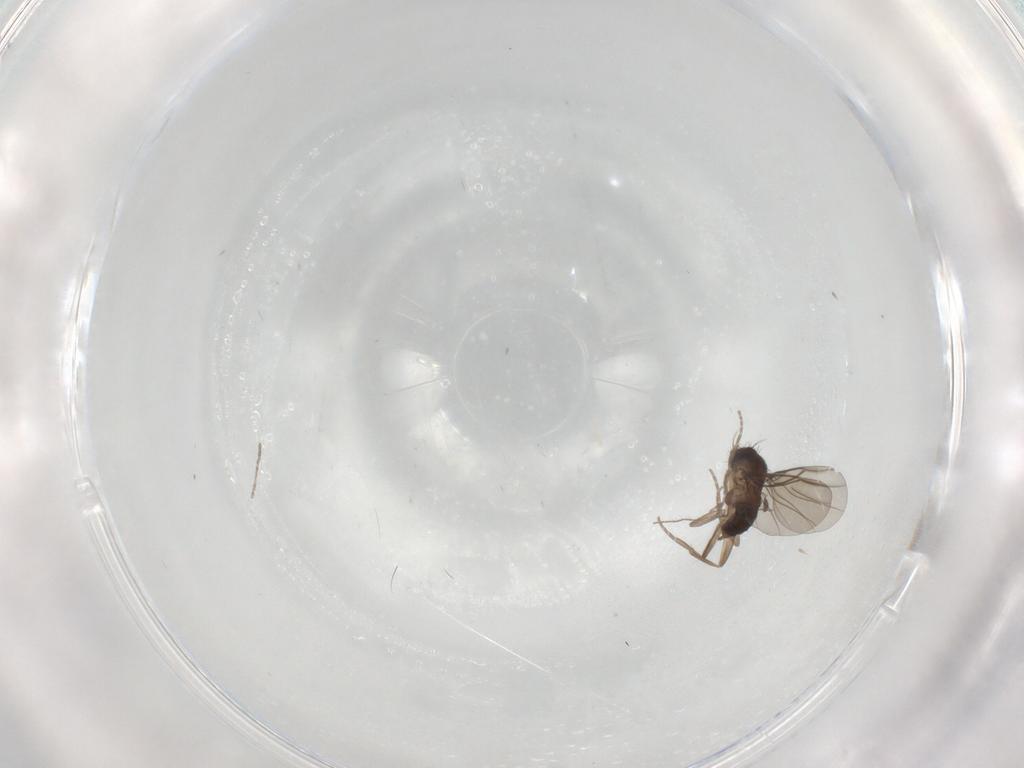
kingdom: Animalia
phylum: Arthropoda
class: Insecta
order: Diptera
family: Phoridae
